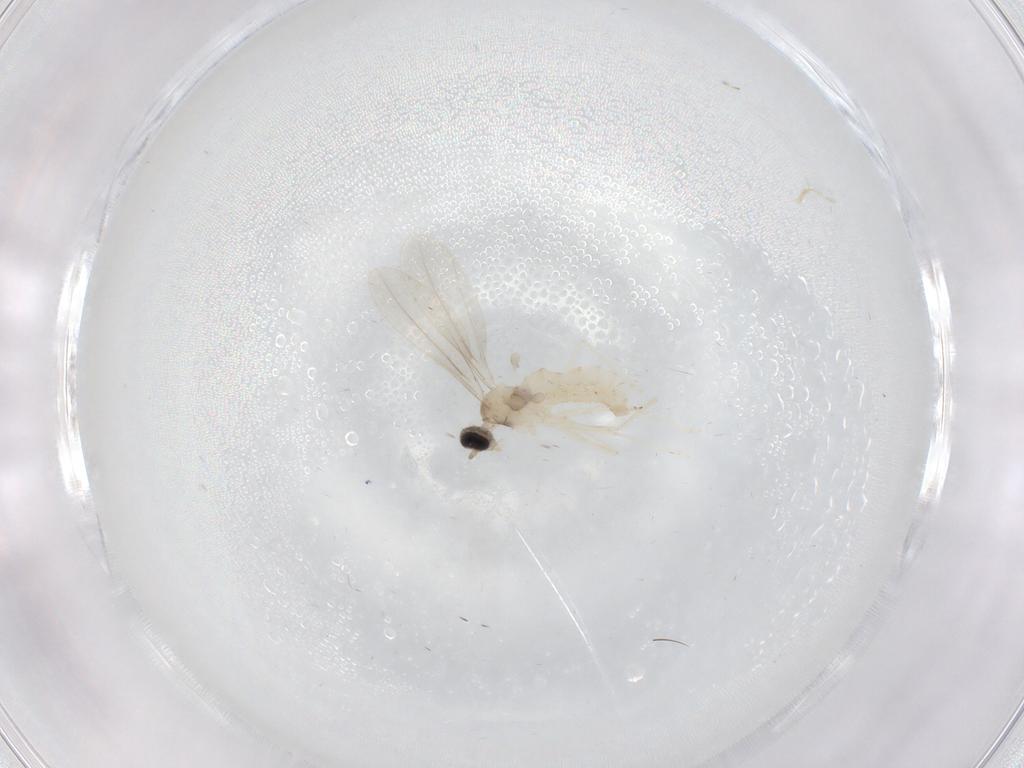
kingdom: Animalia
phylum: Arthropoda
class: Insecta
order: Diptera
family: Cecidomyiidae
